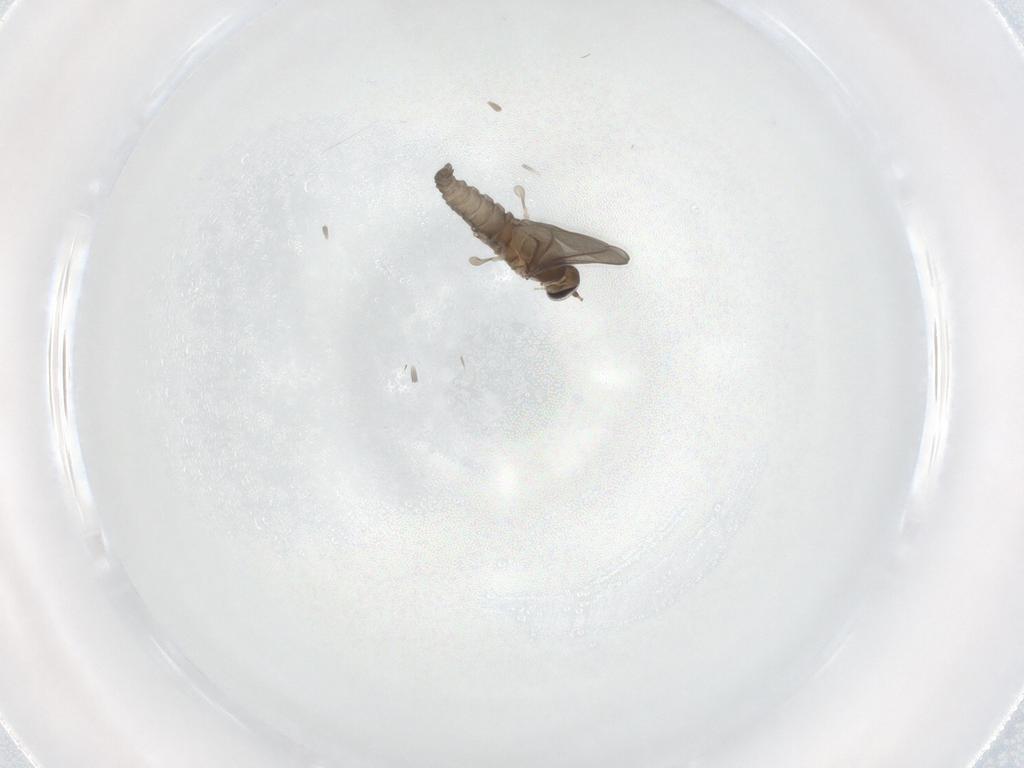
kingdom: Animalia
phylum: Arthropoda
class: Insecta
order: Diptera
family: Cecidomyiidae
